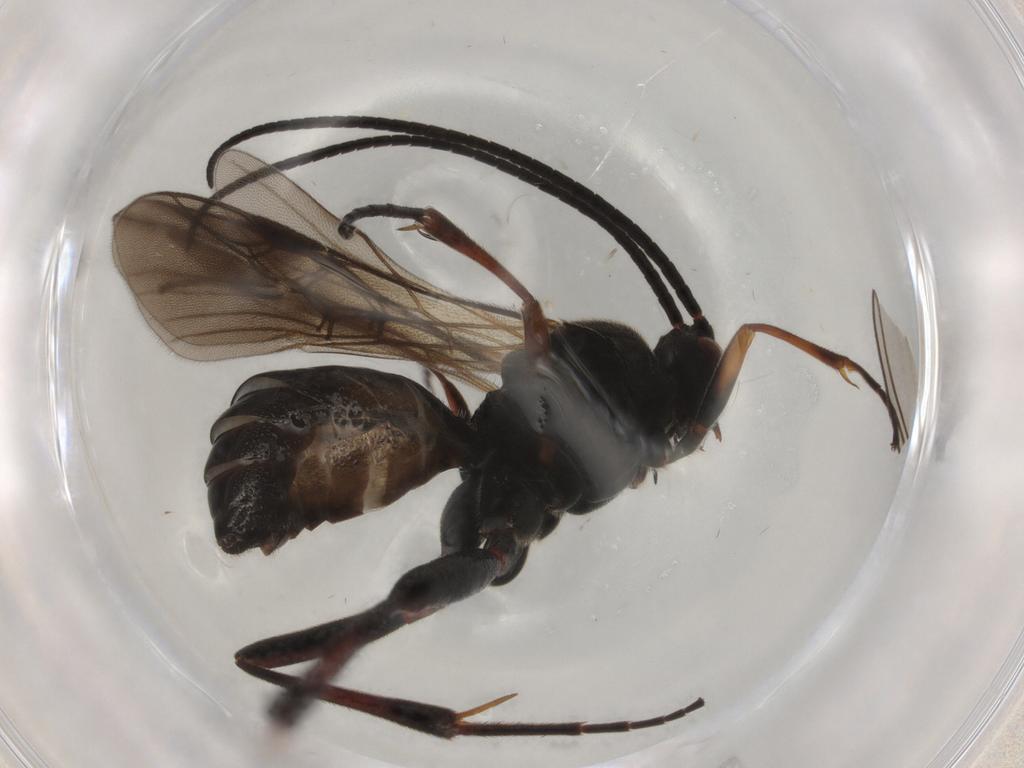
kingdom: Animalia
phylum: Arthropoda
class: Insecta
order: Hymenoptera
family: Braconidae
